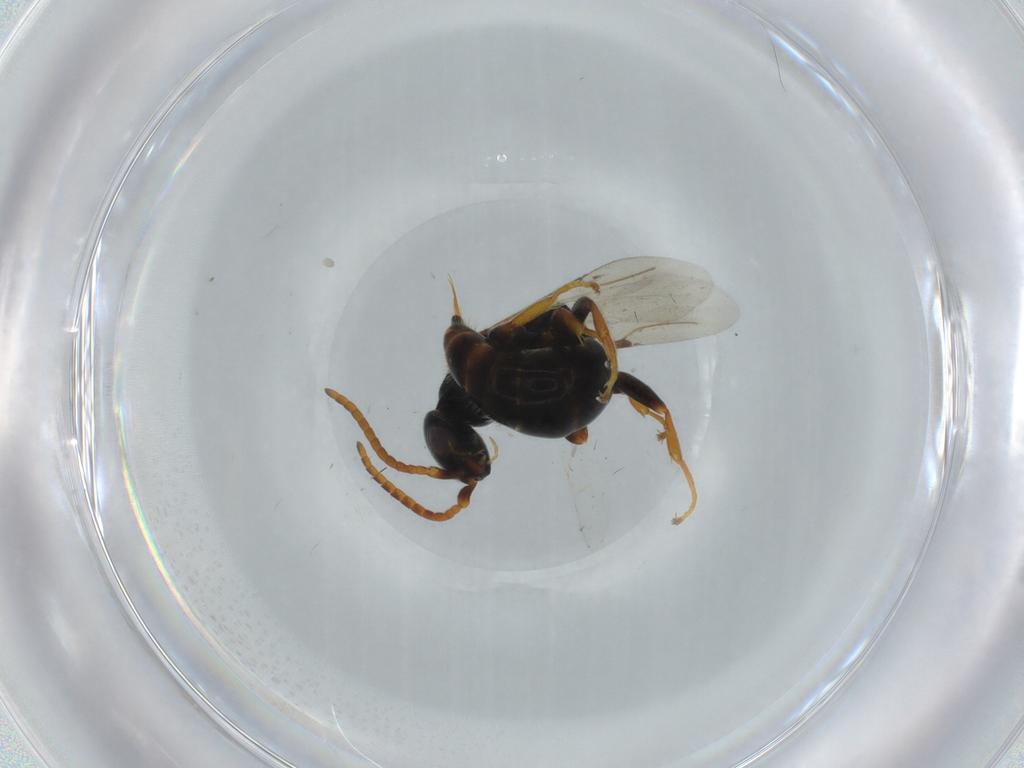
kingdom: Animalia
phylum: Arthropoda
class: Insecta
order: Hymenoptera
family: Bethylidae
